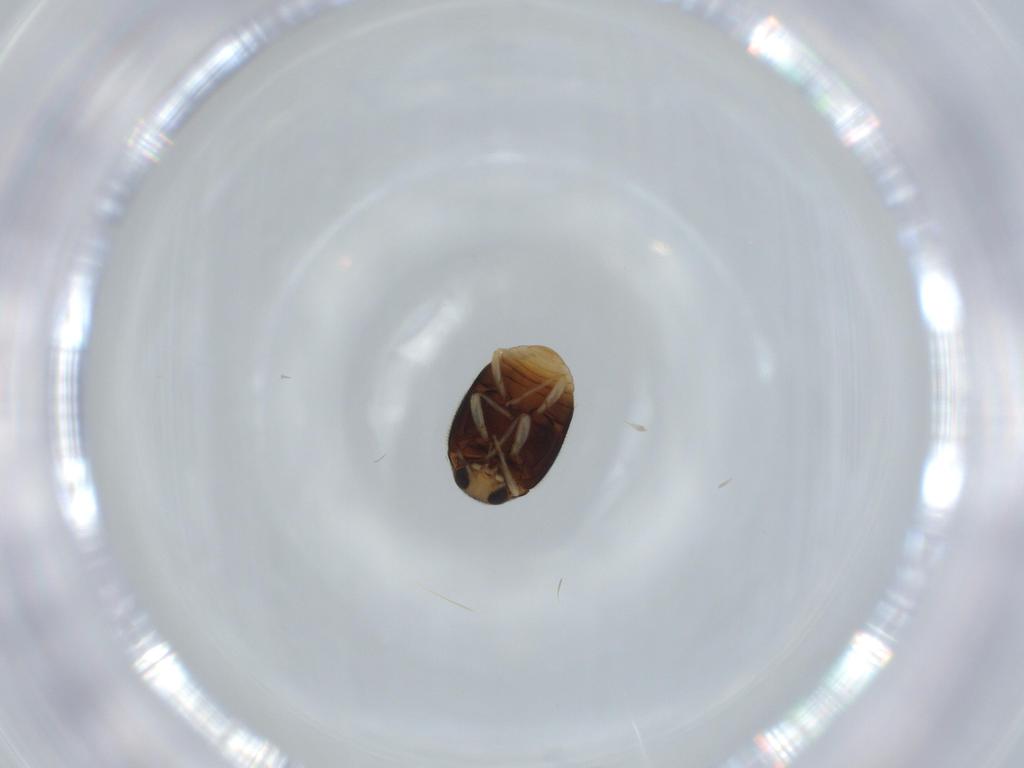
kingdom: Animalia
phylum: Arthropoda
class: Insecta
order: Coleoptera
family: Coccinellidae
